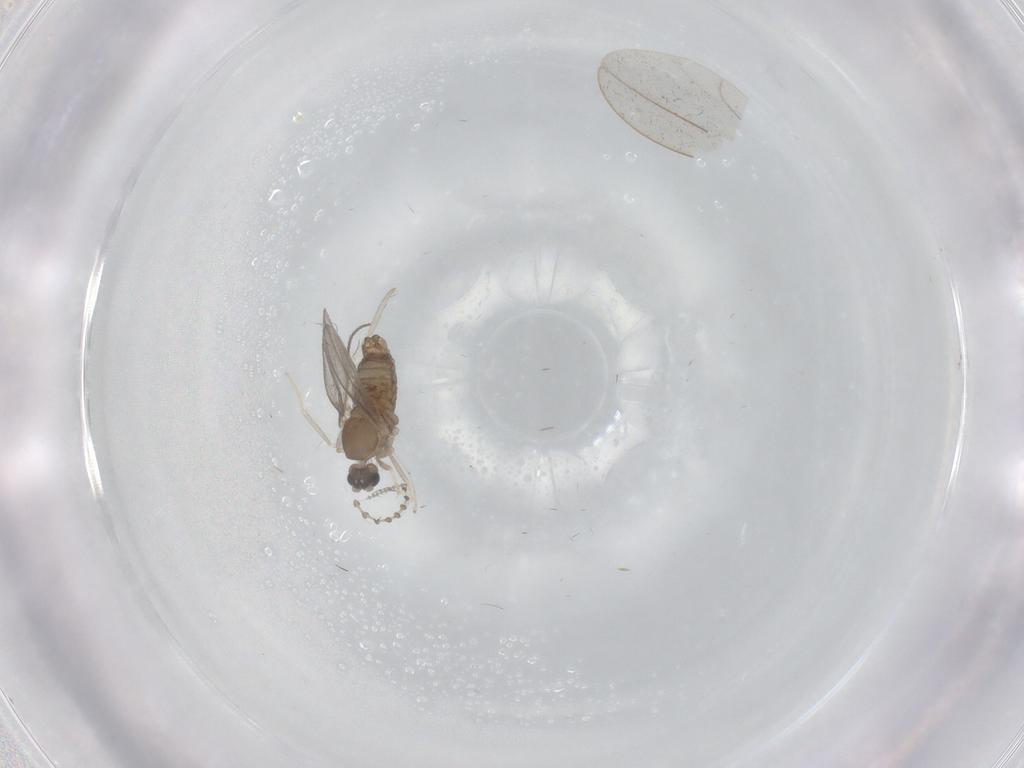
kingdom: Animalia
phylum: Arthropoda
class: Insecta
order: Diptera
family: Cecidomyiidae
